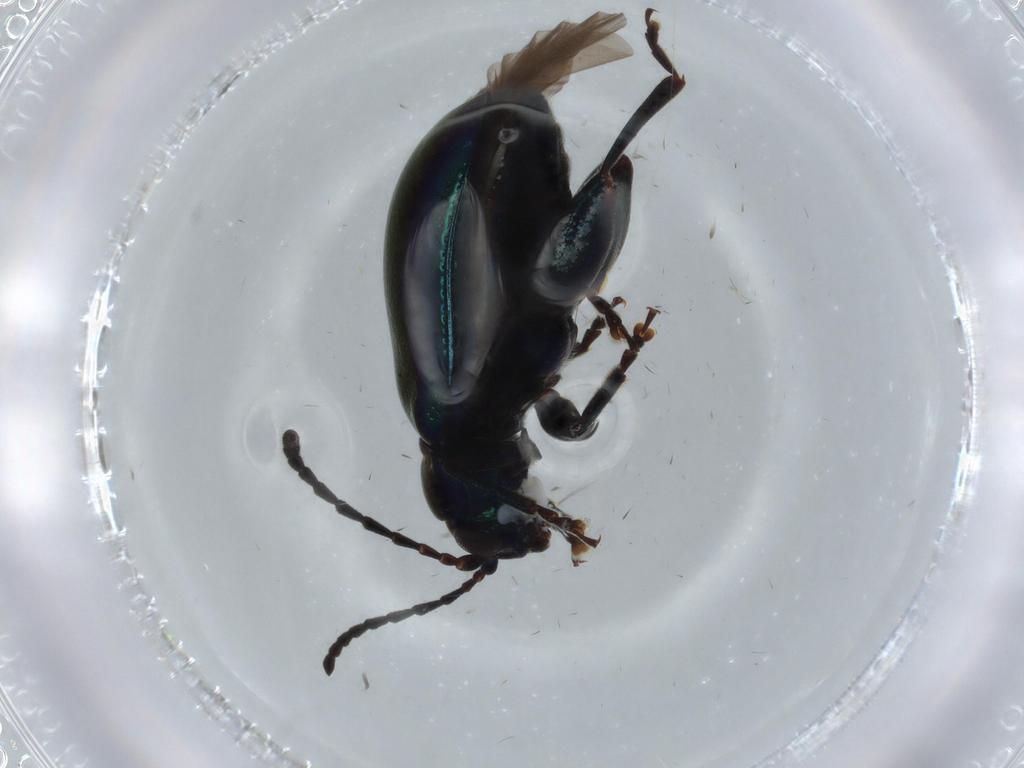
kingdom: Animalia
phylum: Arthropoda
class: Insecta
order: Coleoptera
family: Chrysomelidae
